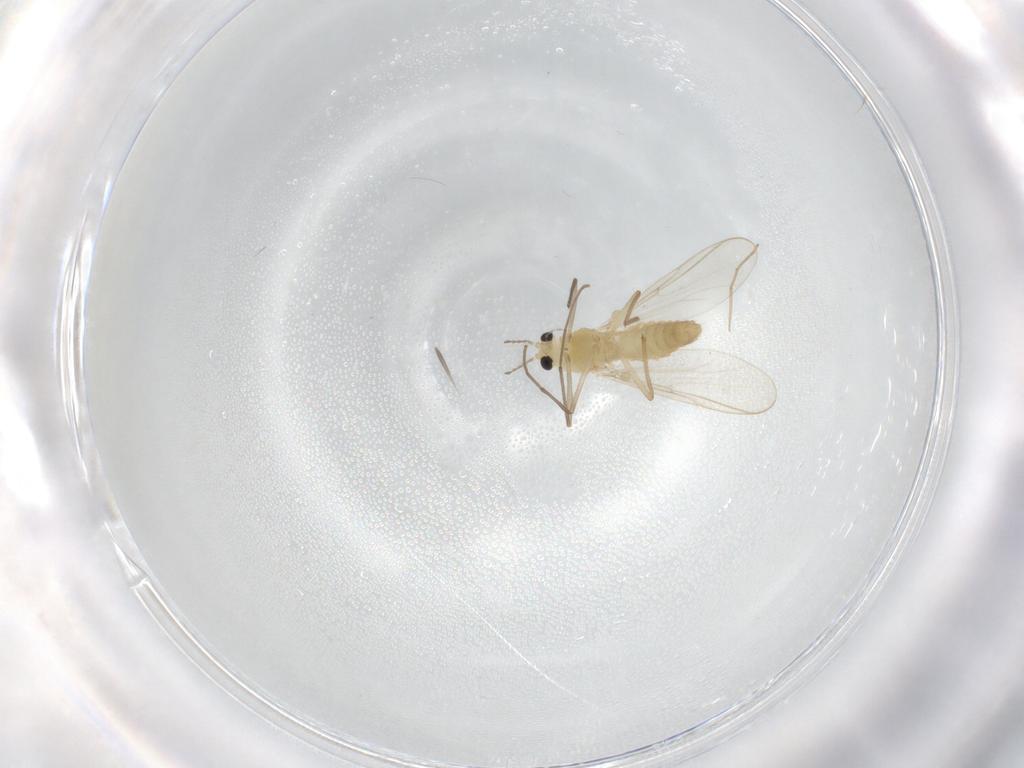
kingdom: Animalia
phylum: Arthropoda
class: Insecta
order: Diptera
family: Chironomidae
